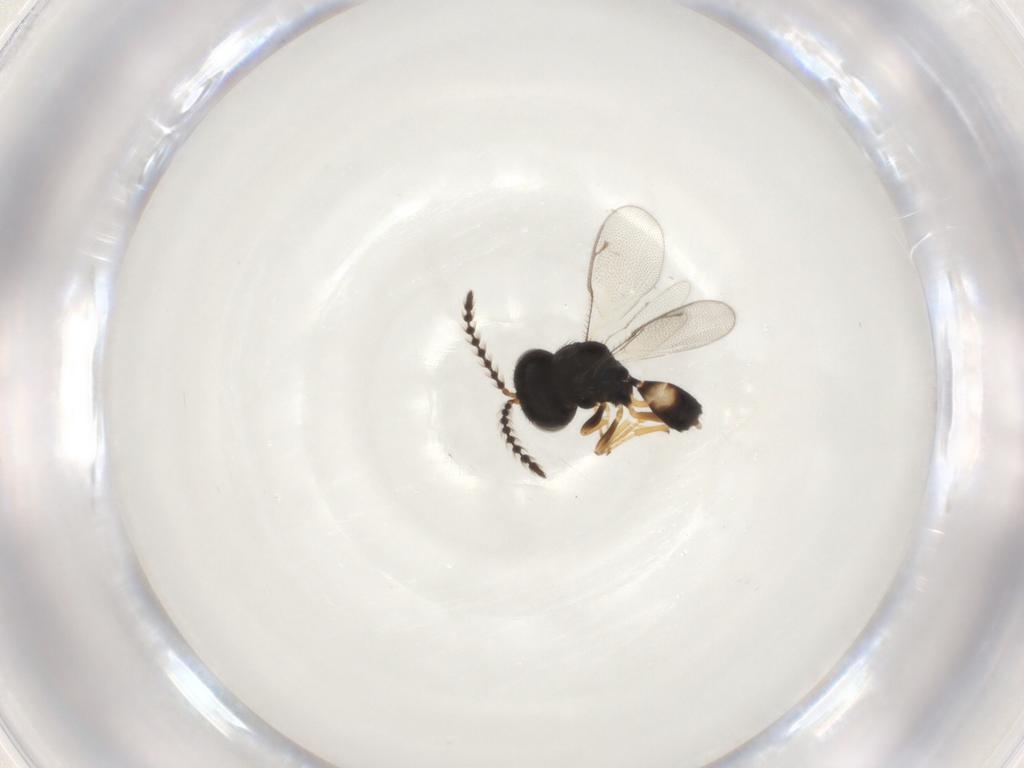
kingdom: Animalia
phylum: Arthropoda
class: Insecta
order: Hymenoptera
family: Pteromalidae
